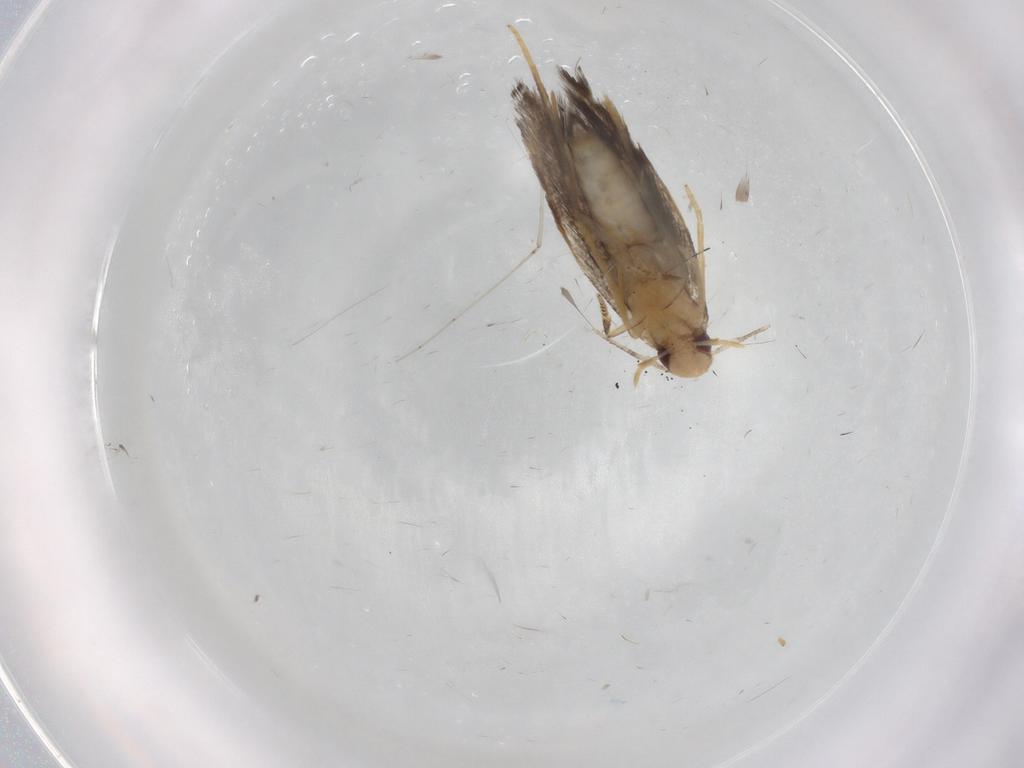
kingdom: Animalia
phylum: Arthropoda
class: Insecta
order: Lepidoptera
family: Gelechiidae
